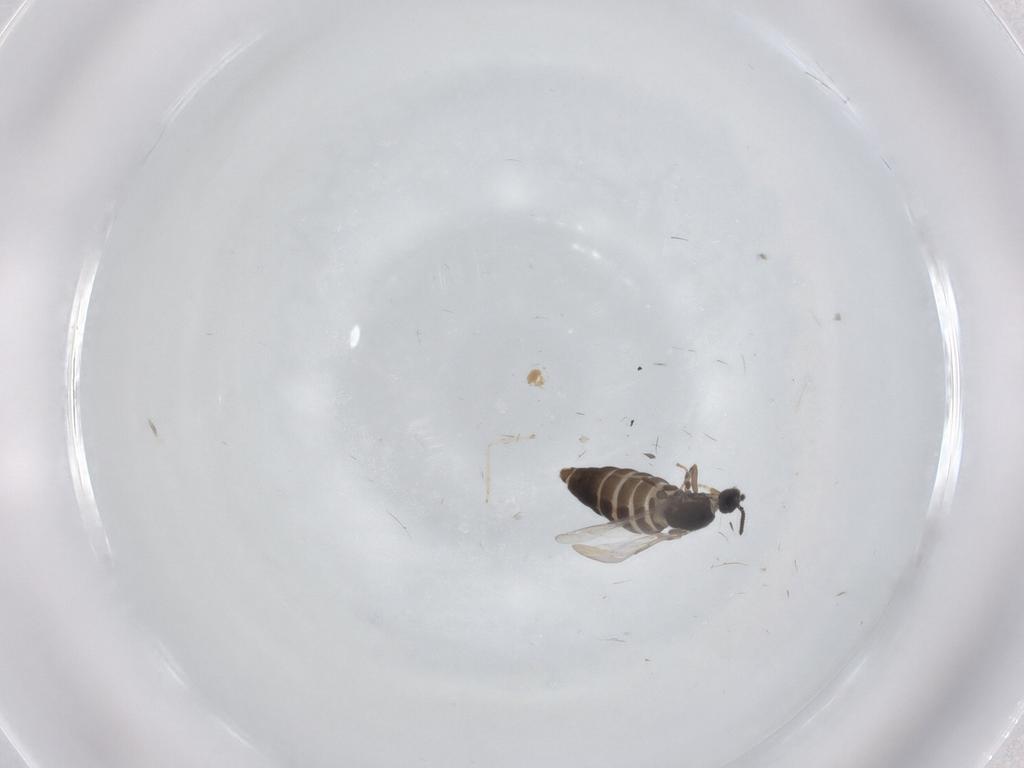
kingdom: Animalia
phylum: Arthropoda
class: Insecta
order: Diptera
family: Scatopsidae
